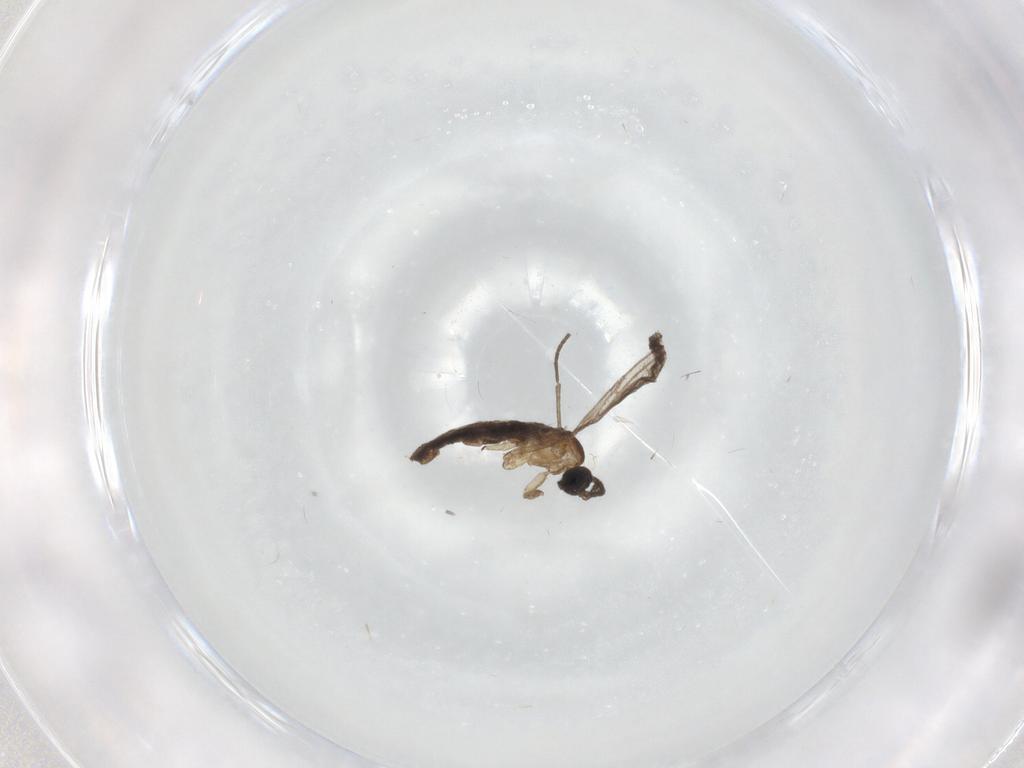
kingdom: Animalia
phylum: Arthropoda
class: Insecta
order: Diptera
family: Sciaridae
